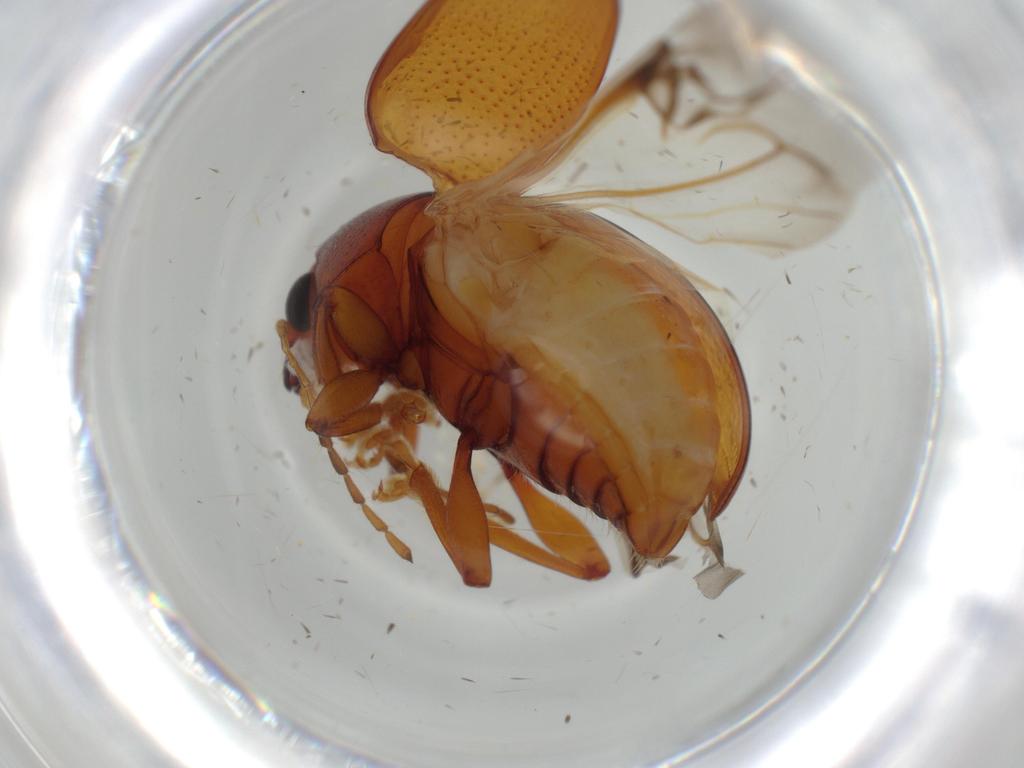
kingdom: Animalia
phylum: Arthropoda
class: Insecta
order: Coleoptera
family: Chrysomelidae
